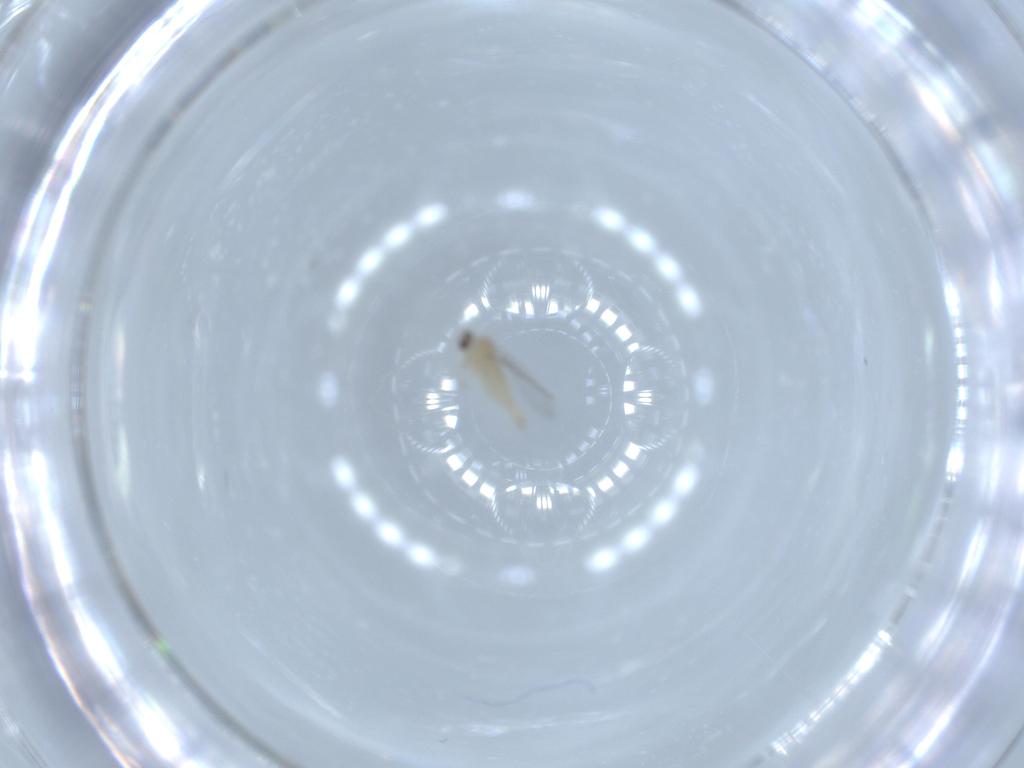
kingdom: Animalia
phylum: Arthropoda
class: Insecta
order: Diptera
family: Cecidomyiidae
